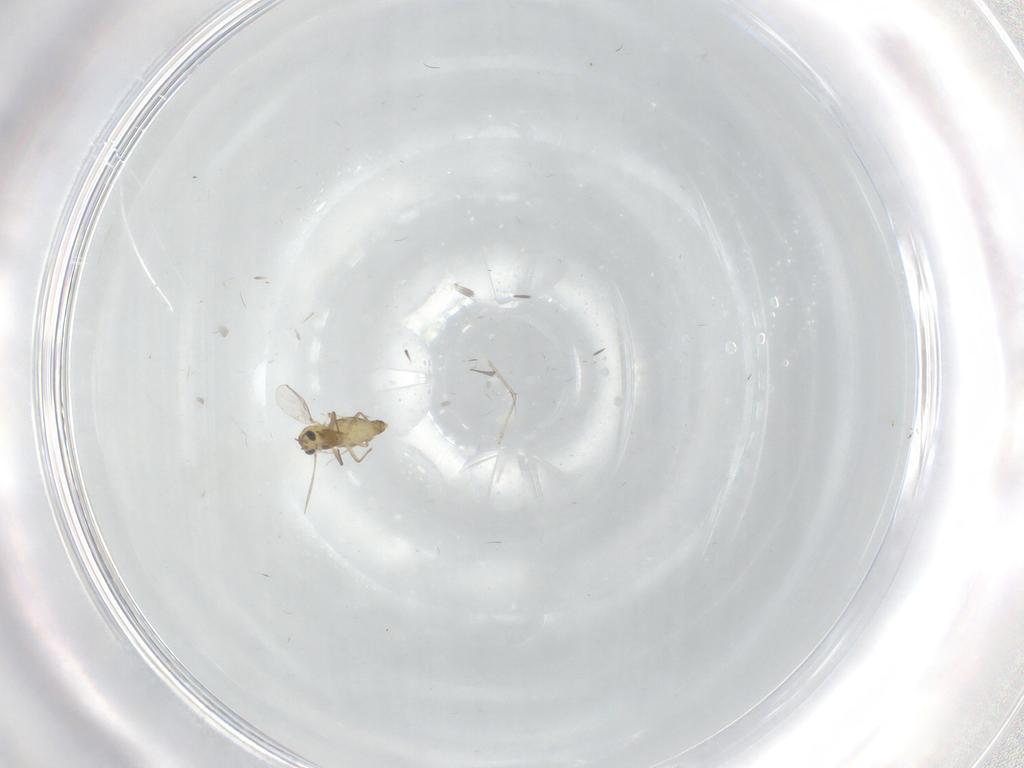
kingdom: Animalia
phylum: Arthropoda
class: Insecta
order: Diptera
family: Chironomidae
